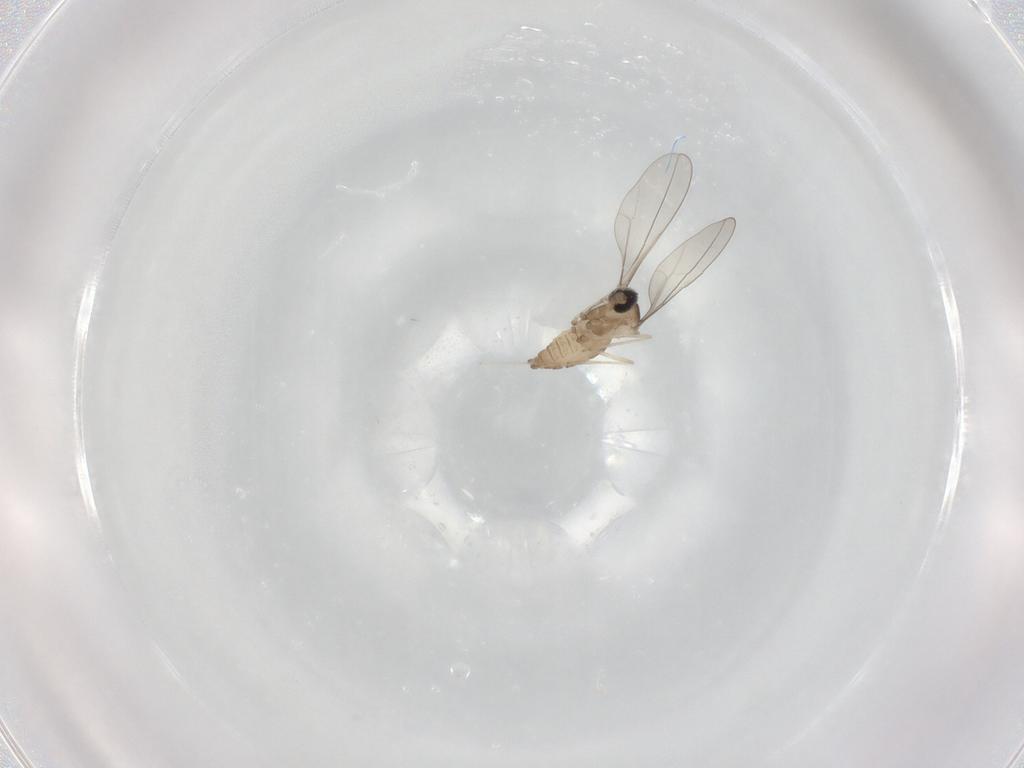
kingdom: Animalia
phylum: Arthropoda
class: Insecta
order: Diptera
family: Cecidomyiidae
